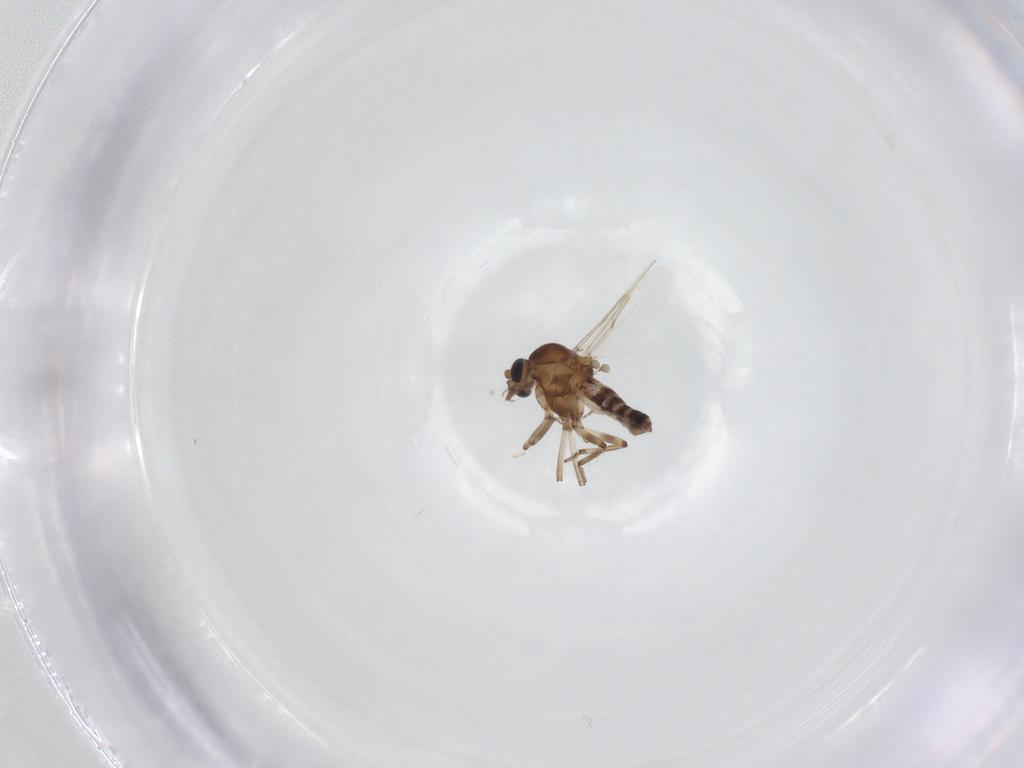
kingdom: Animalia
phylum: Arthropoda
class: Insecta
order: Diptera
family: Ceratopogonidae
